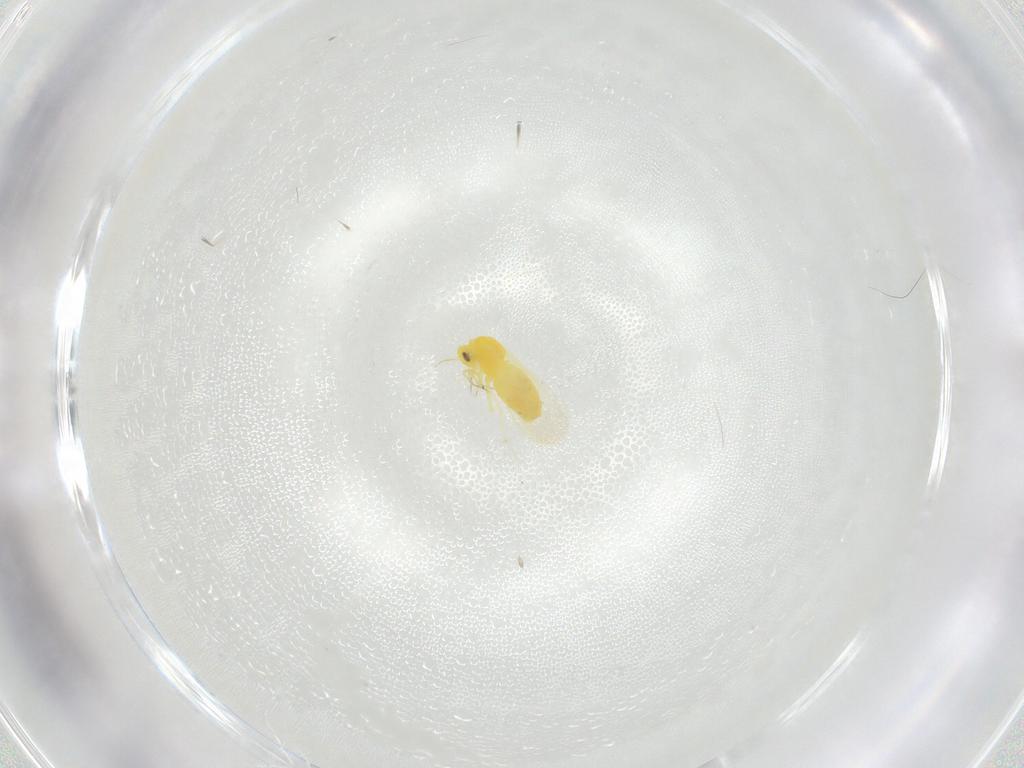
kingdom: Animalia
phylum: Arthropoda
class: Insecta
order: Hemiptera
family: Aleyrodidae
